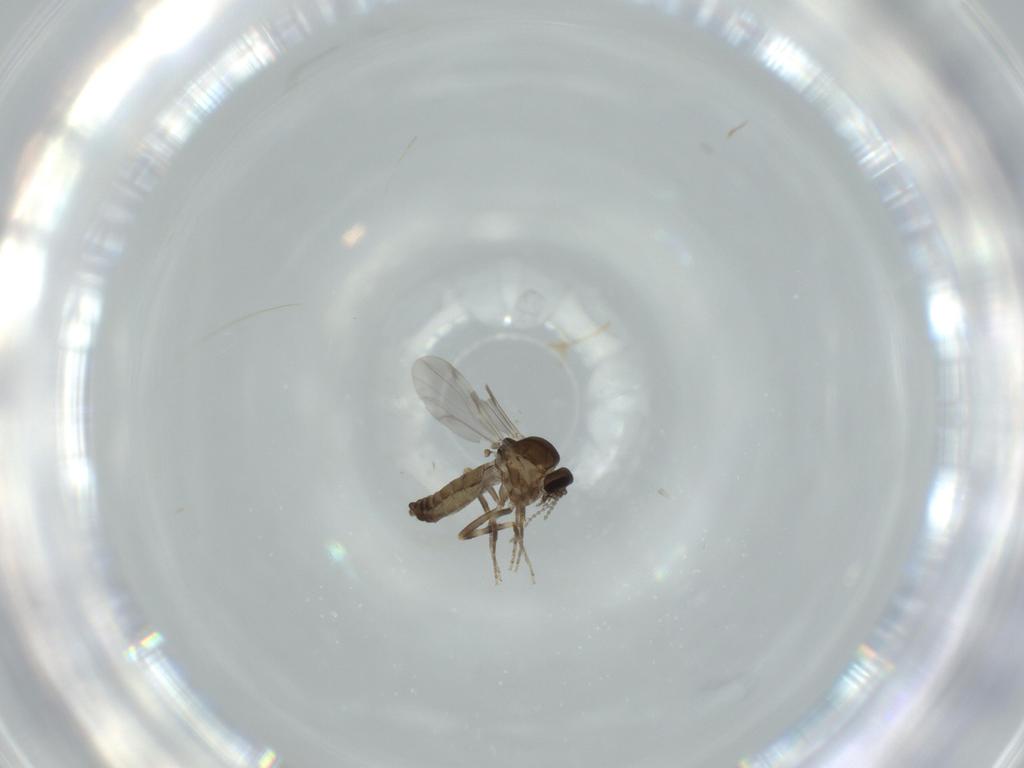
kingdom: Animalia
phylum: Arthropoda
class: Insecta
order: Diptera
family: Ceratopogonidae
